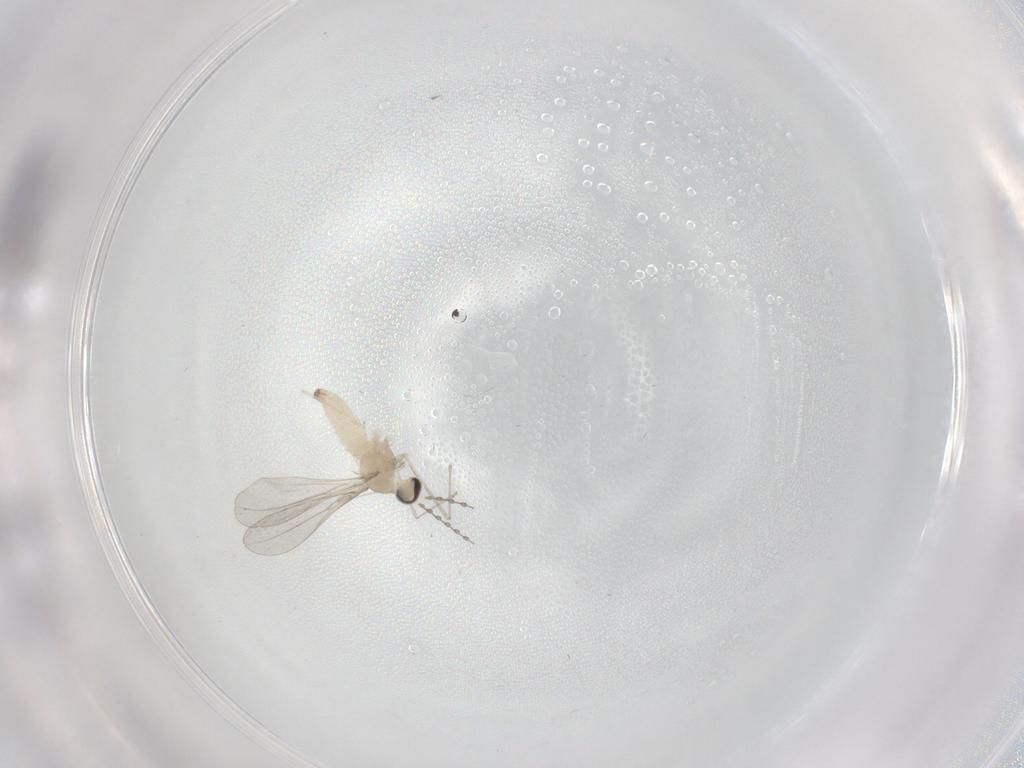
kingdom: Animalia
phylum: Arthropoda
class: Insecta
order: Diptera
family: Cecidomyiidae
